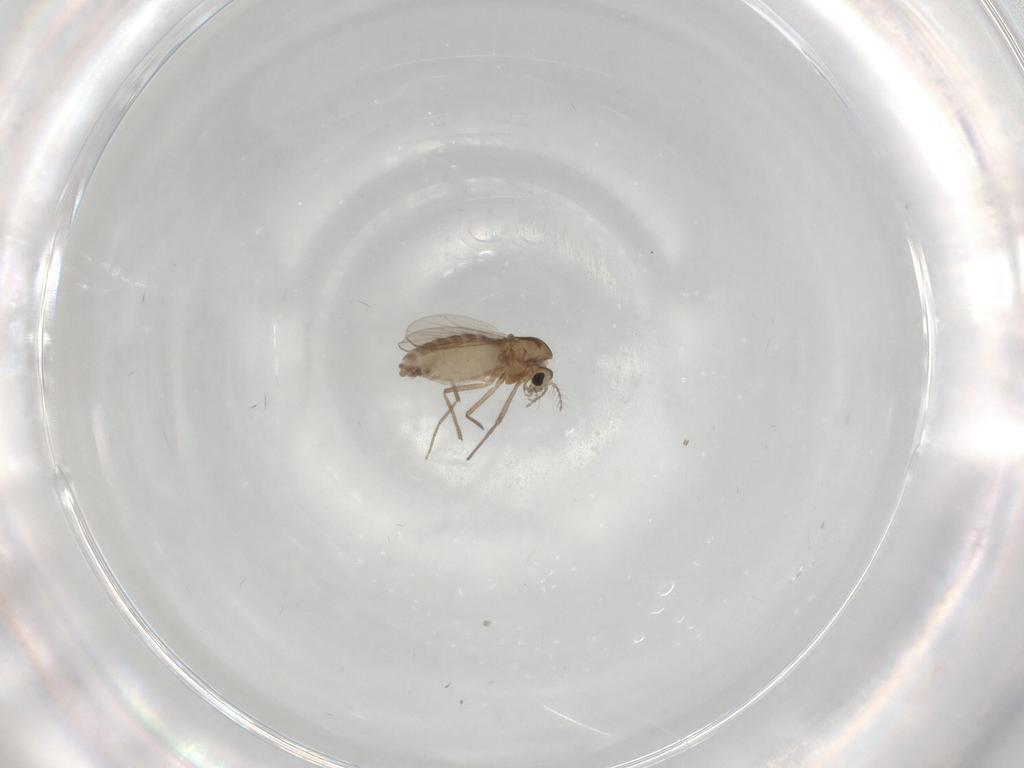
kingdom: Animalia
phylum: Arthropoda
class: Insecta
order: Diptera
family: Chironomidae
